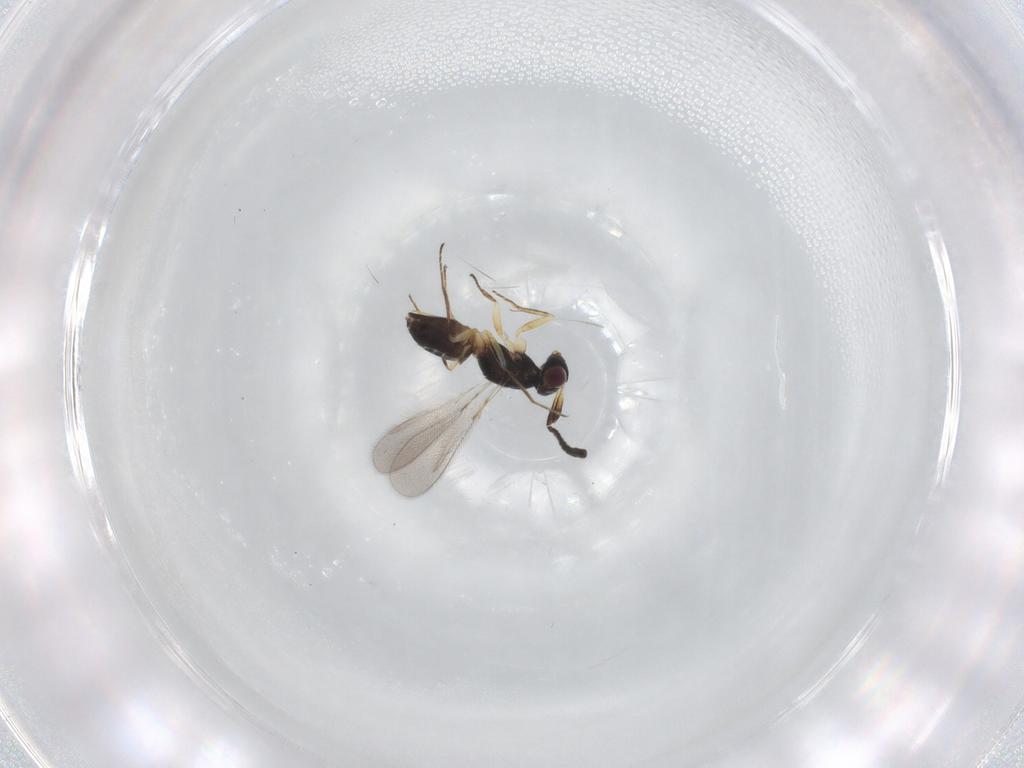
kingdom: Animalia
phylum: Arthropoda
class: Insecta
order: Hymenoptera
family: Mymaridae
